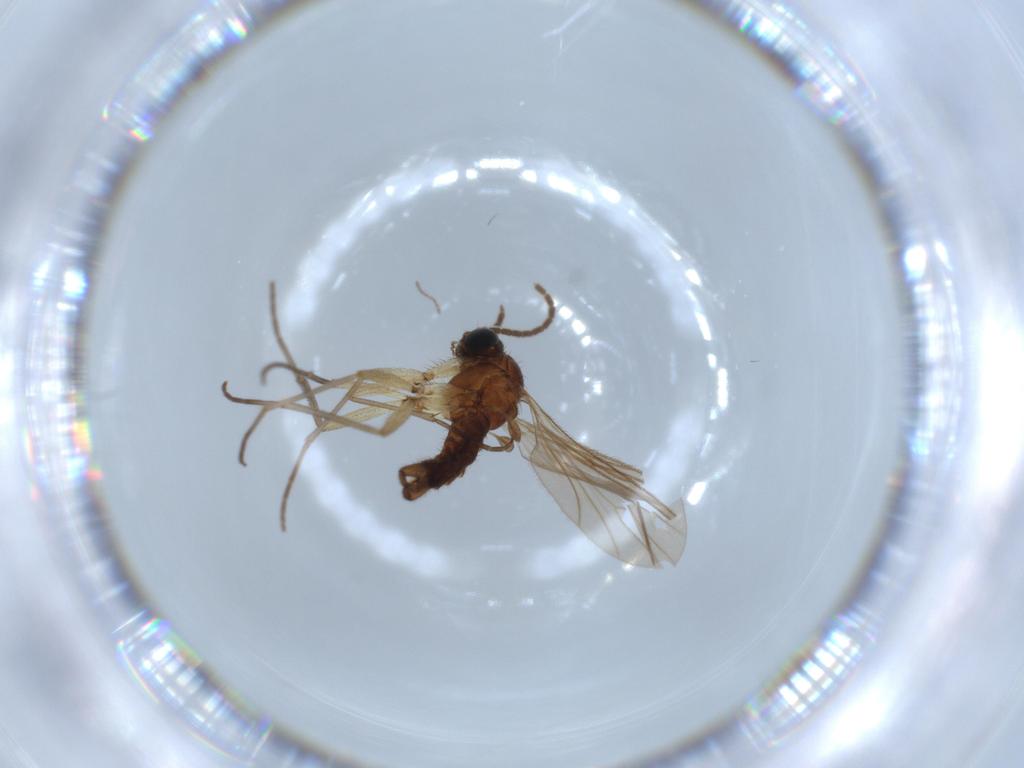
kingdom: Animalia
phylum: Arthropoda
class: Insecta
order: Diptera
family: Sciaridae
